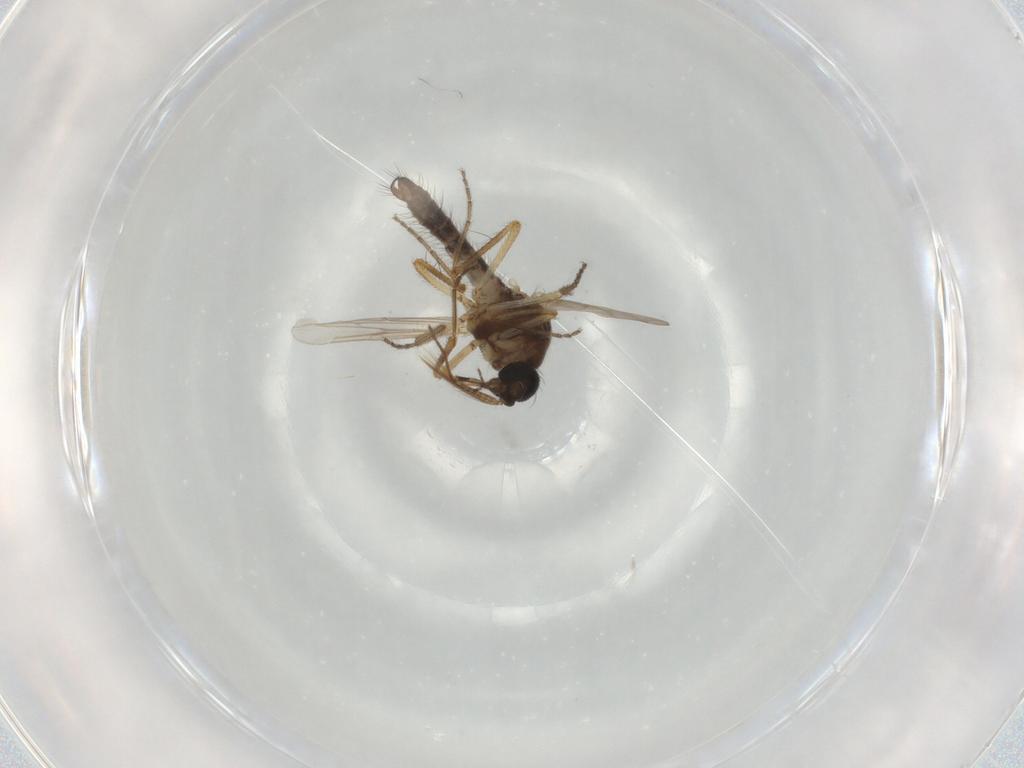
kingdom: Animalia
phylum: Arthropoda
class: Insecta
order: Diptera
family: Ceratopogonidae
